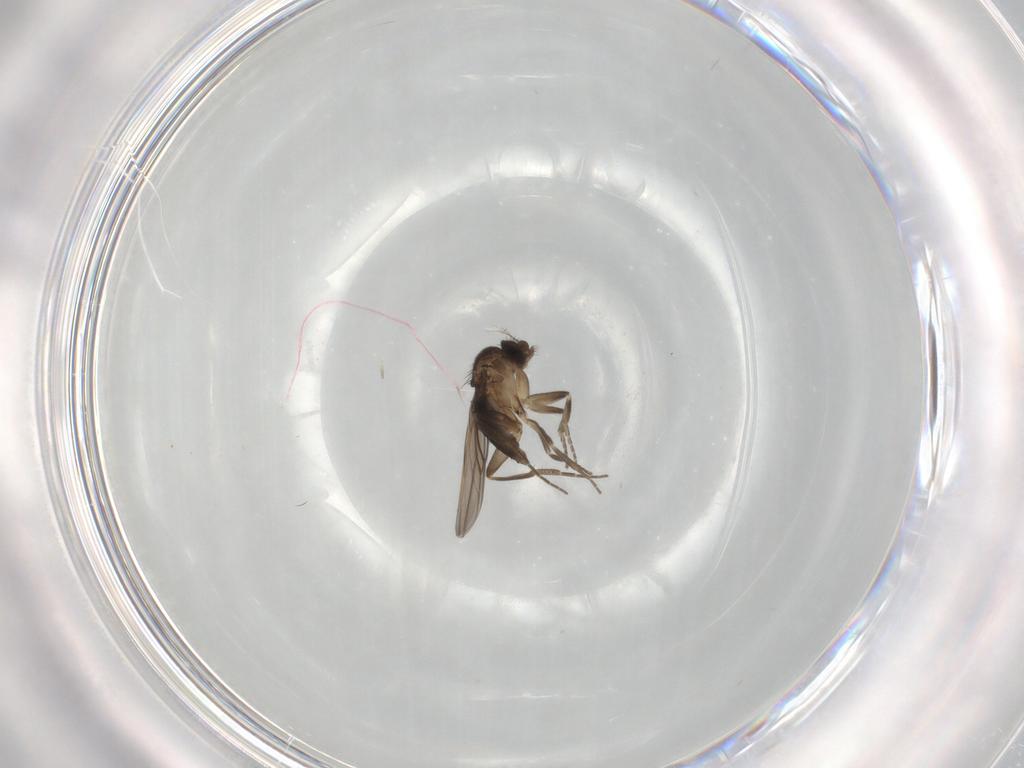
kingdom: Animalia
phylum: Arthropoda
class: Insecta
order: Diptera
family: Phoridae
